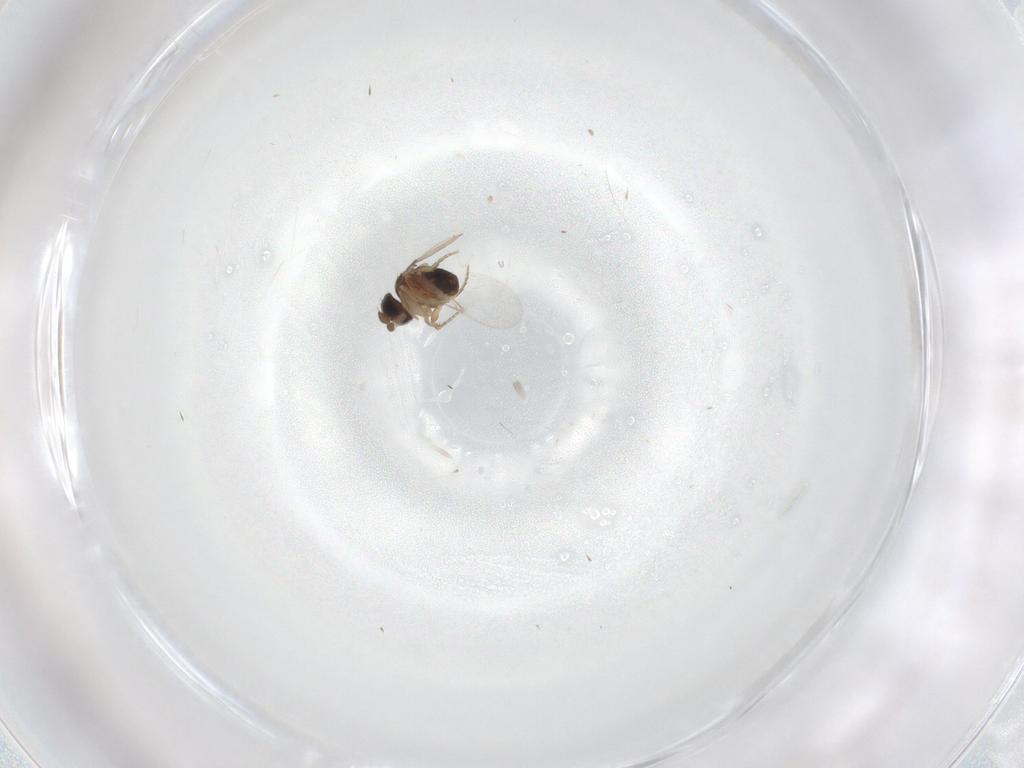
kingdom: Animalia
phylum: Arthropoda
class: Insecta
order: Diptera
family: Phoridae
